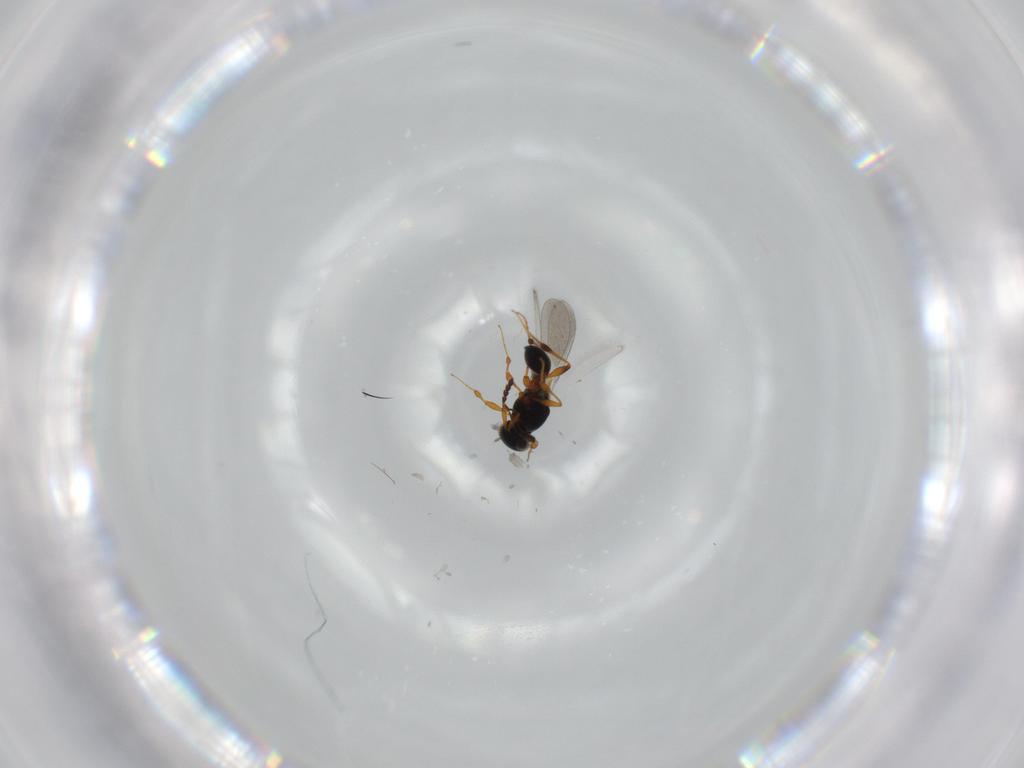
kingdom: Animalia
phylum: Arthropoda
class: Insecta
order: Hymenoptera
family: Platygastridae
